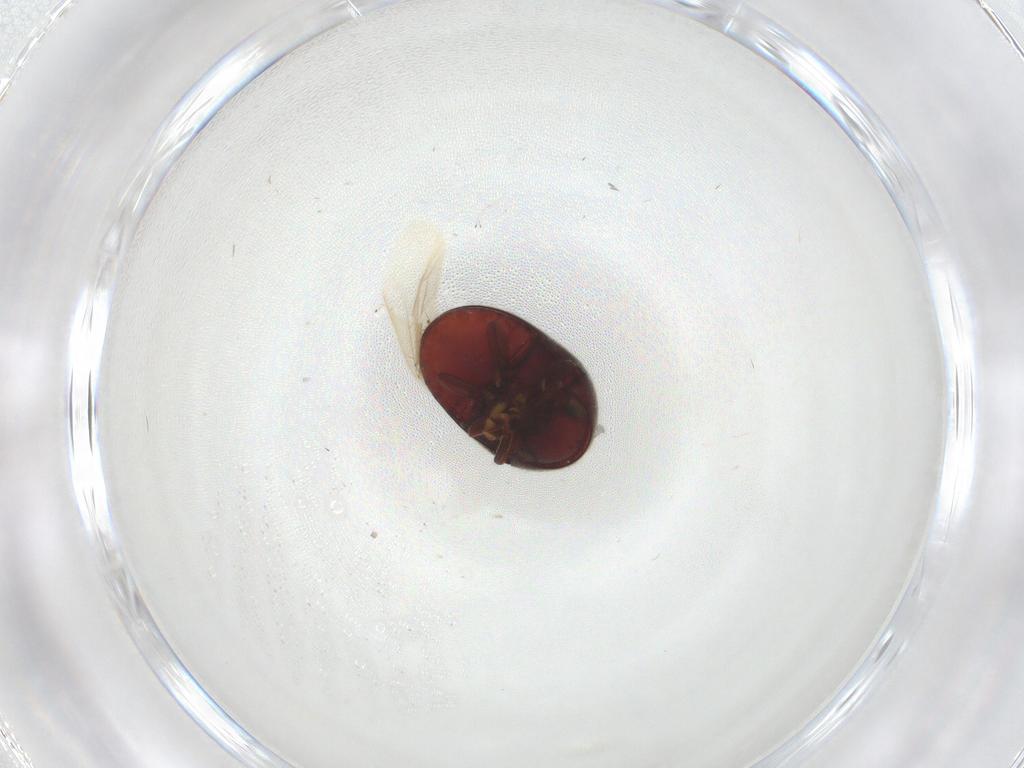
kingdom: Animalia
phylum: Arthropoda
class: Insecta
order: Coleoptera
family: Ptinidae
